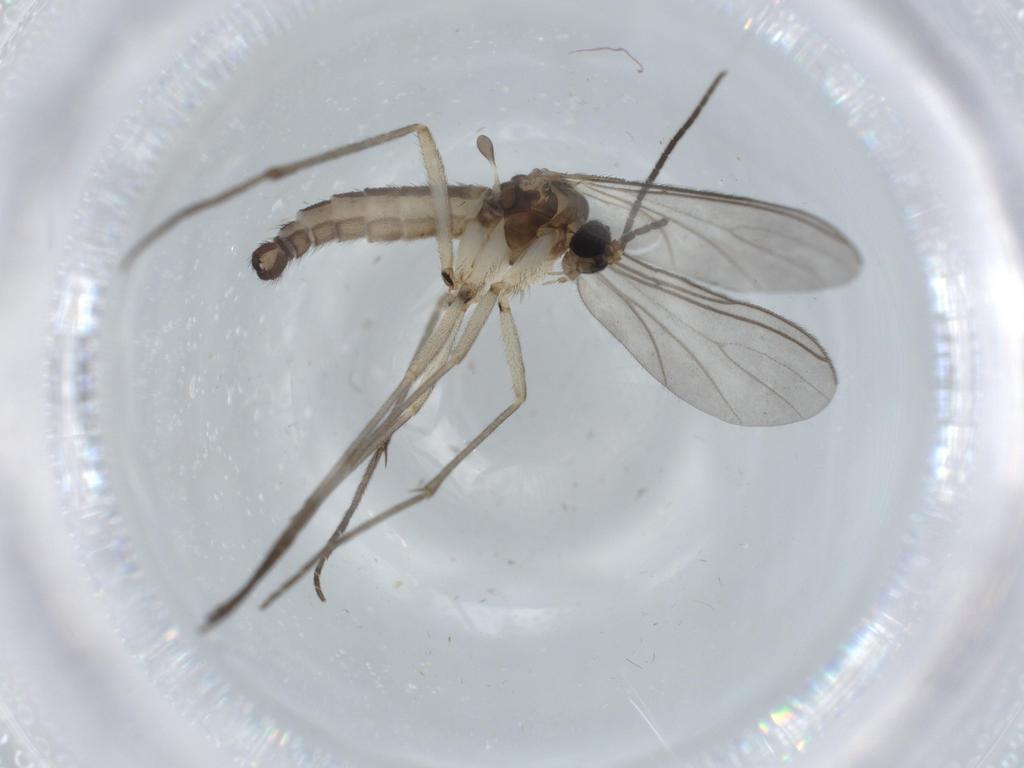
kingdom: Animalia
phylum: Arthropoda
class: Insecta
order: Diptera
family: Sciaridae
